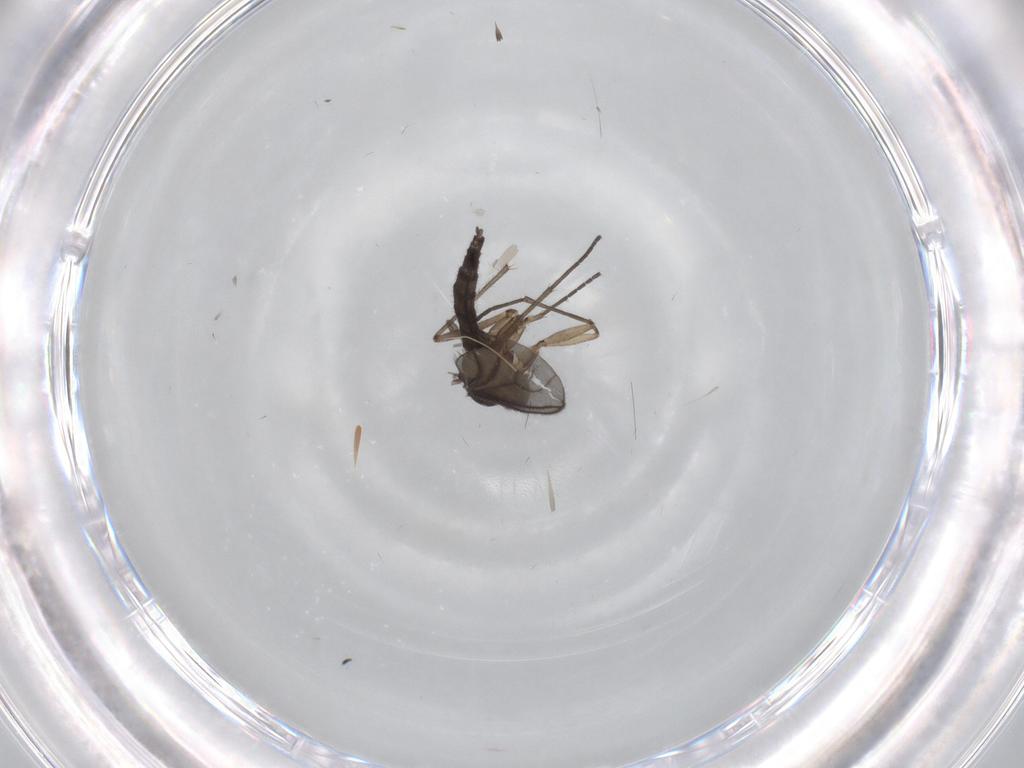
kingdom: Animalia
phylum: Arthropoda
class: Insecta
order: Diptera
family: Sciaridae
